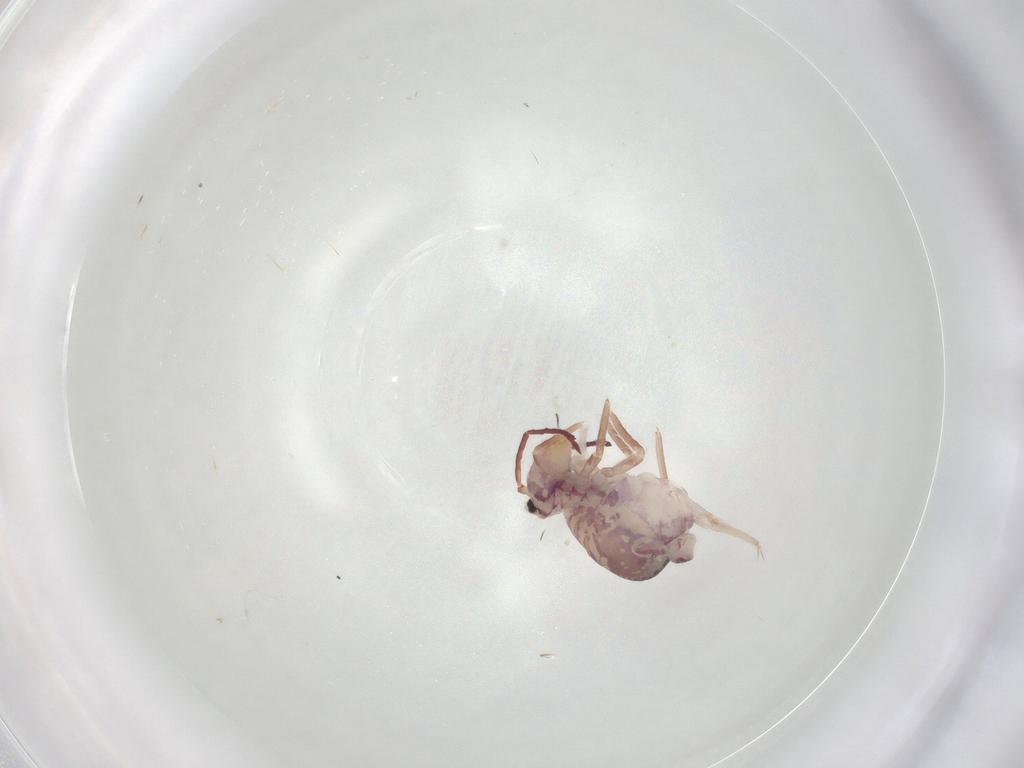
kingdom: Animalia
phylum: Arthropoda
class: Collembola
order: Symphypleona
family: Dicyrtomidae
